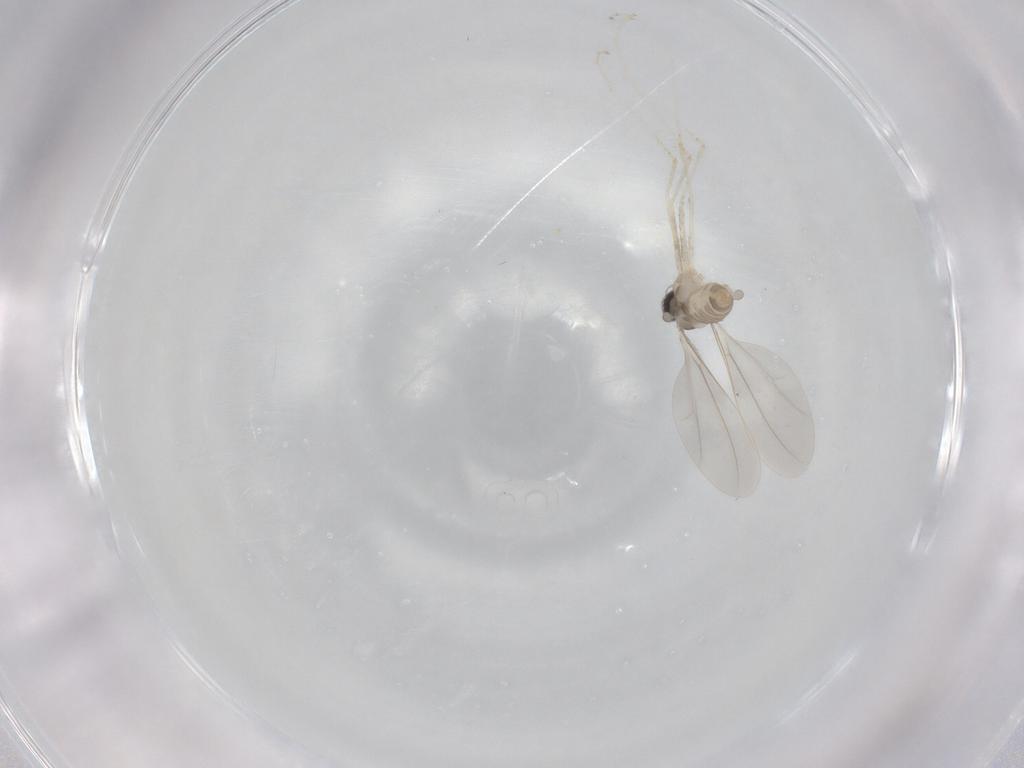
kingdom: Animalia
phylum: Arthropoda
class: Insecta
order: Diptera
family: Cecidomyiidae
